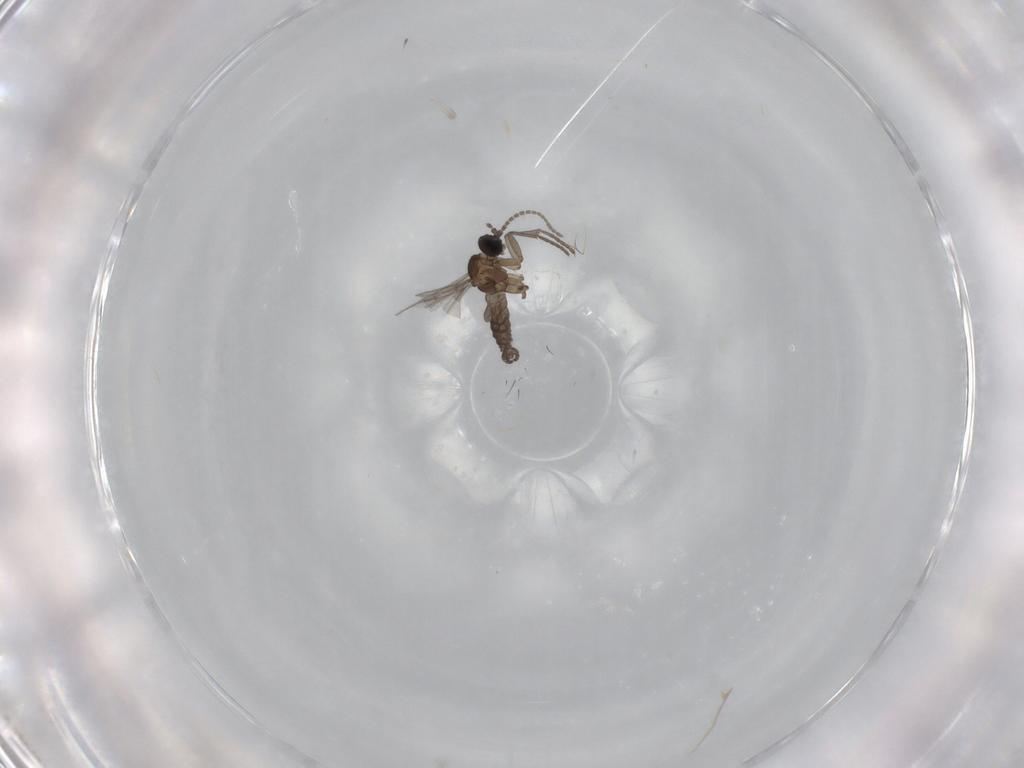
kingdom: Animalia
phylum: Arthropoda
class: Insecta
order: Diptera
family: Sciaridae
